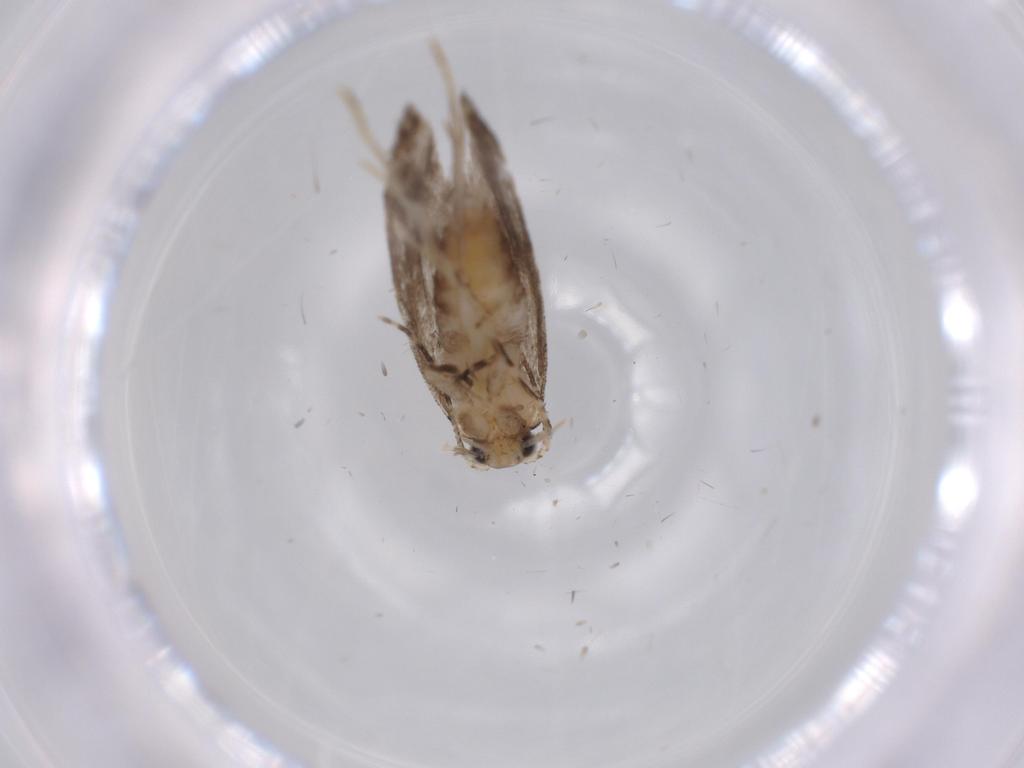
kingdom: Animalia
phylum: Arthropoda
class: Insecta
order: Lepidoptera
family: Tineidae
